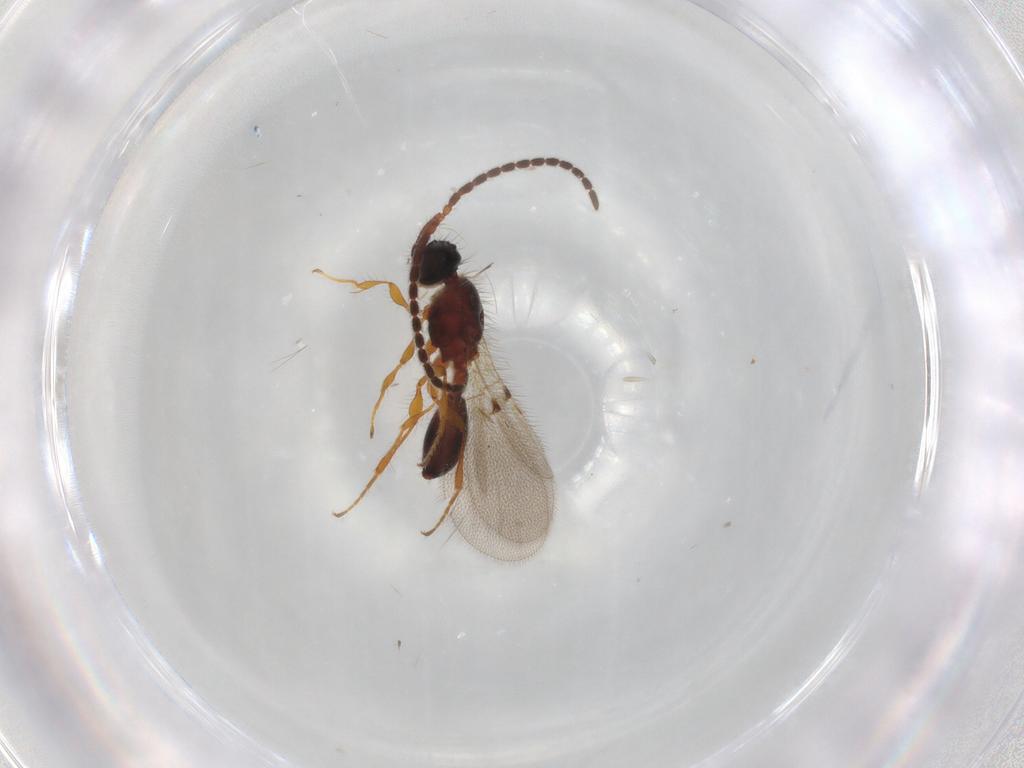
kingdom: Animalia
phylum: Arthropoda
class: Insecta
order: Hymenoptera
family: Diapriidae
